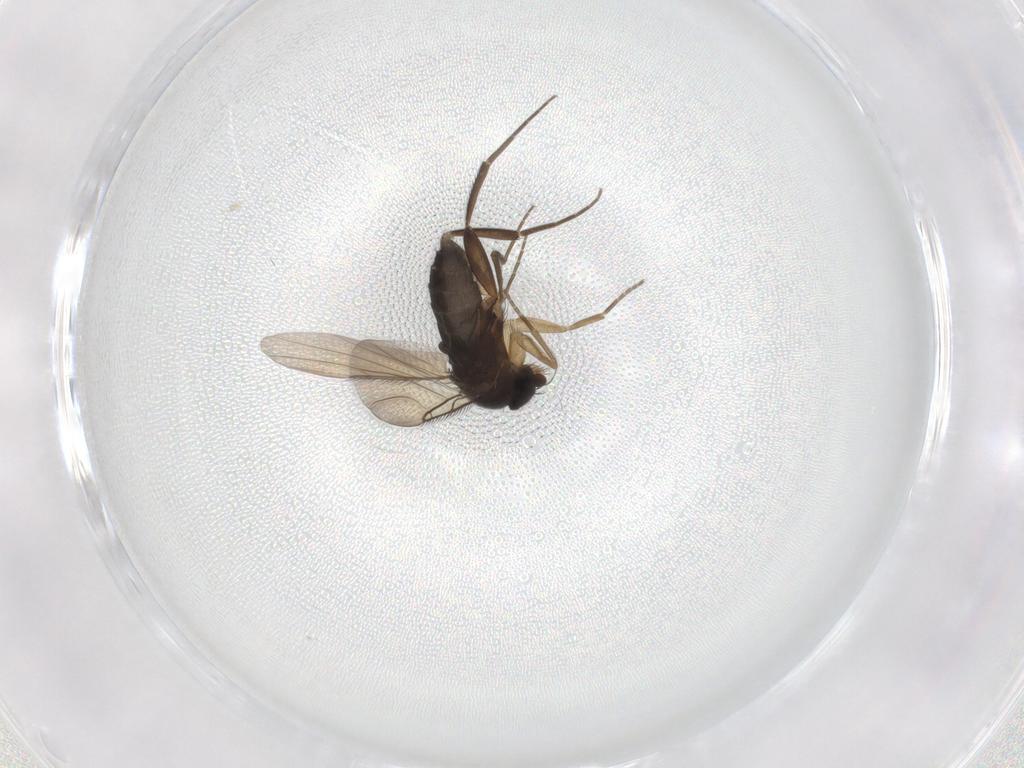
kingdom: Animalia
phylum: Arthropoda
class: Insecta
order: Diptera
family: Phoridae
